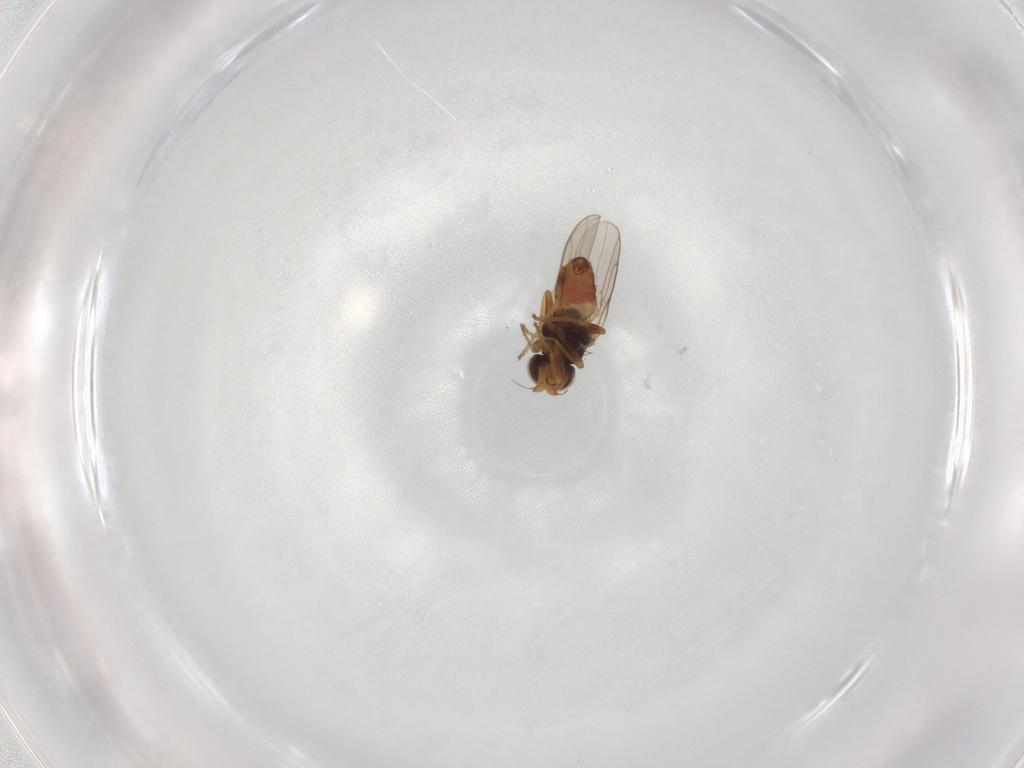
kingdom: Animalia
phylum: Arthropoda
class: Insecta
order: Diptera
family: Chloropidae
